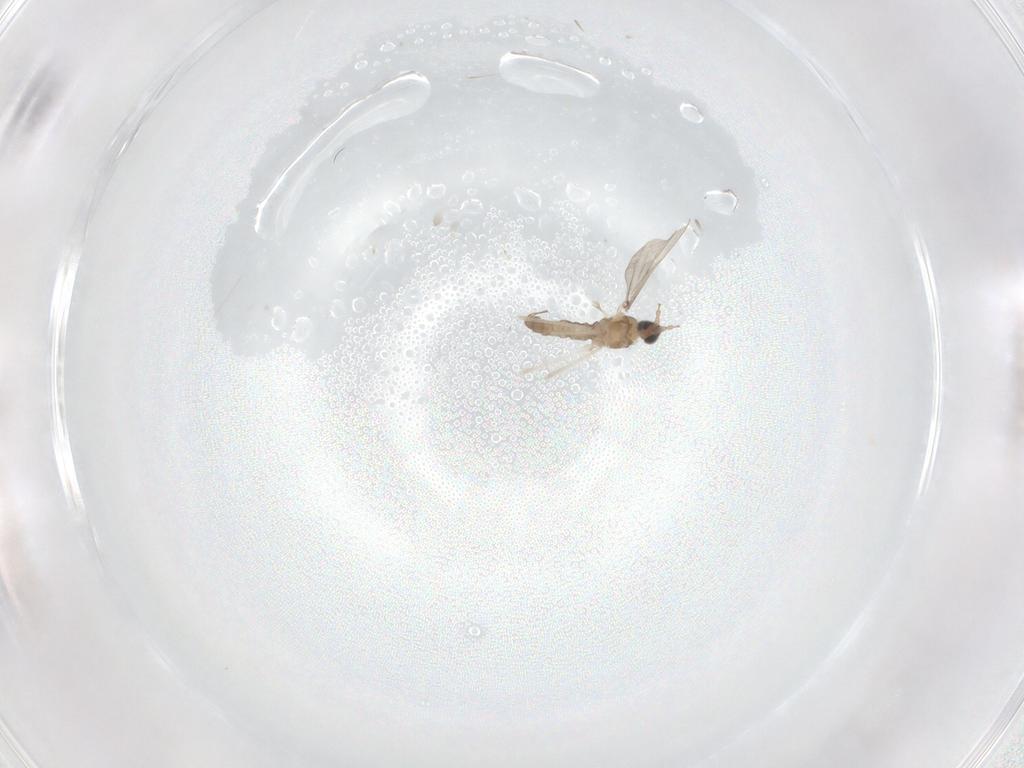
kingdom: Animalia
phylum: Arthropoda
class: Insecta
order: Diptera
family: Cecidomyiidae
